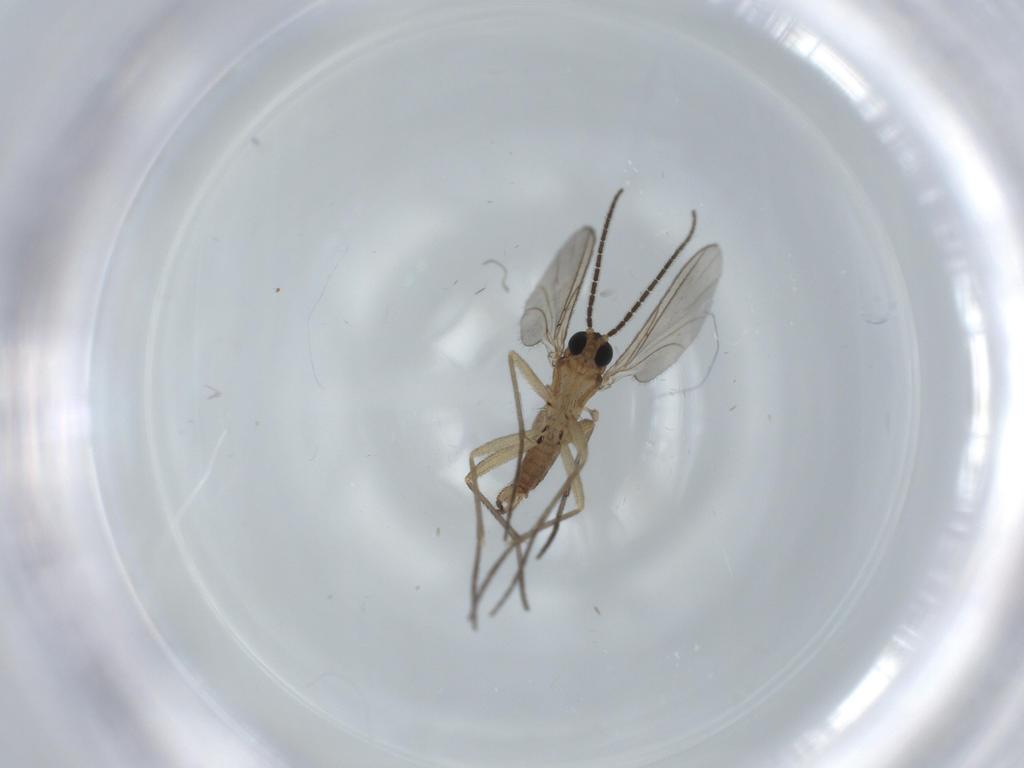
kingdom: Animalia
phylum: Arthropoda
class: Insecta
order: Diptera
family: Sciaridae
